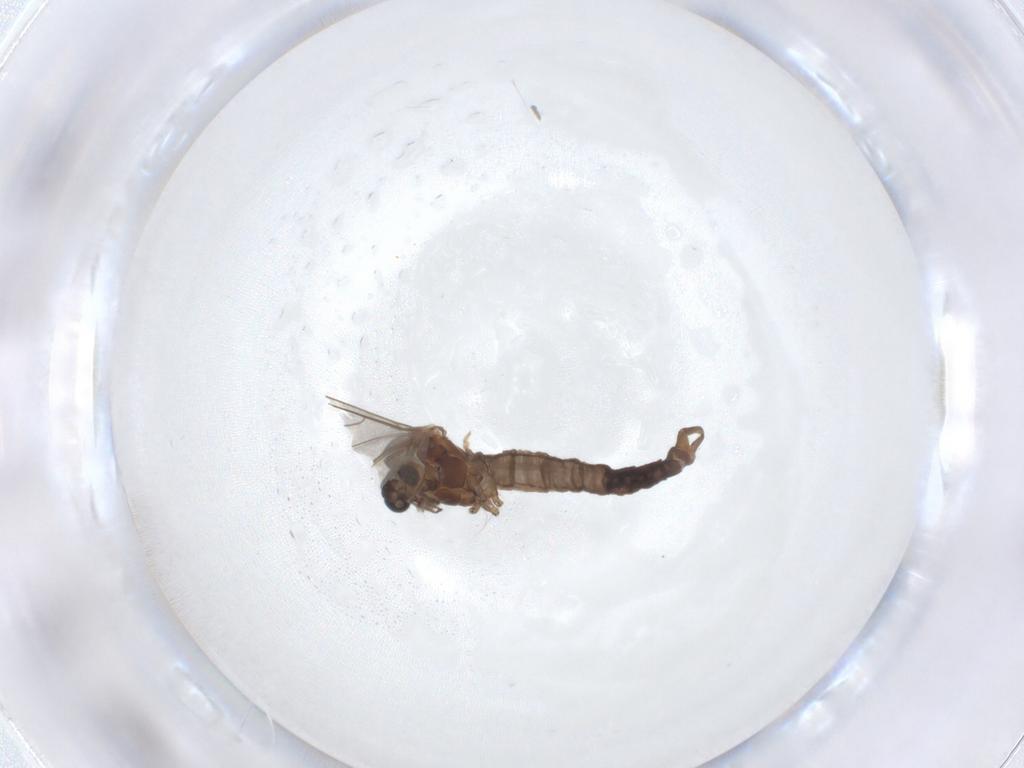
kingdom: Animalia
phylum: Arthropoda
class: Insecta
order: Diptera
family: Trichoceridae
